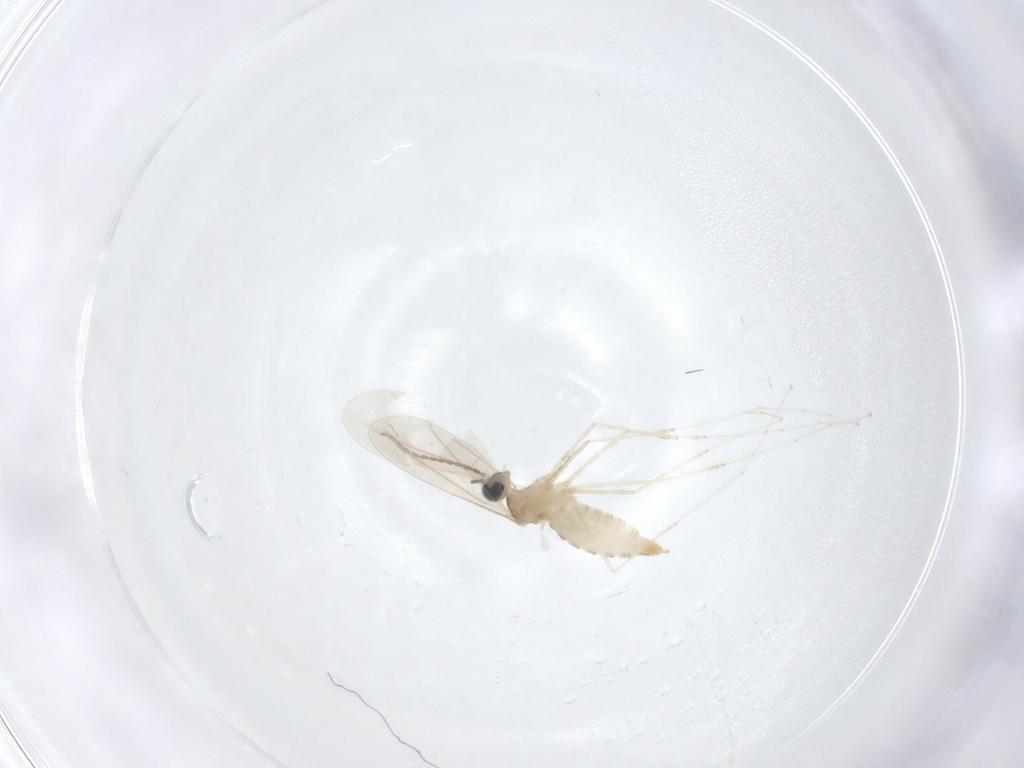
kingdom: Animalia
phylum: Arthropoda
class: Insecta
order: Diptera
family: Cecidomyiidae
